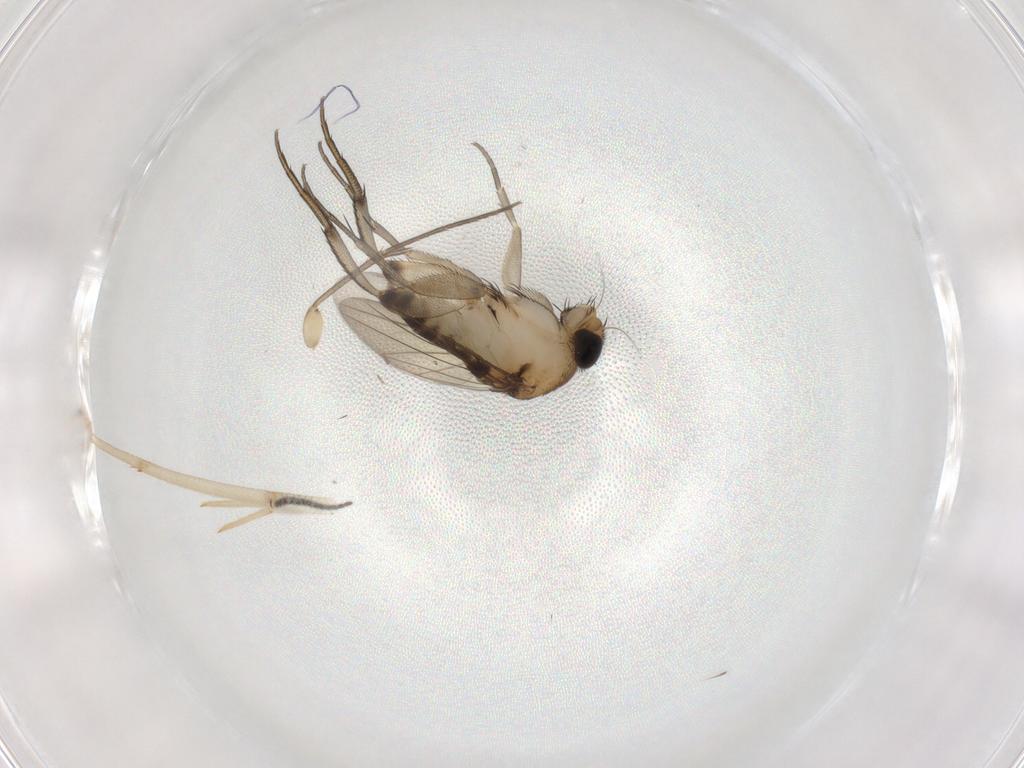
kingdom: Animalia
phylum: Arthropoda
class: Insecta
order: Diptera
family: Phoridae
